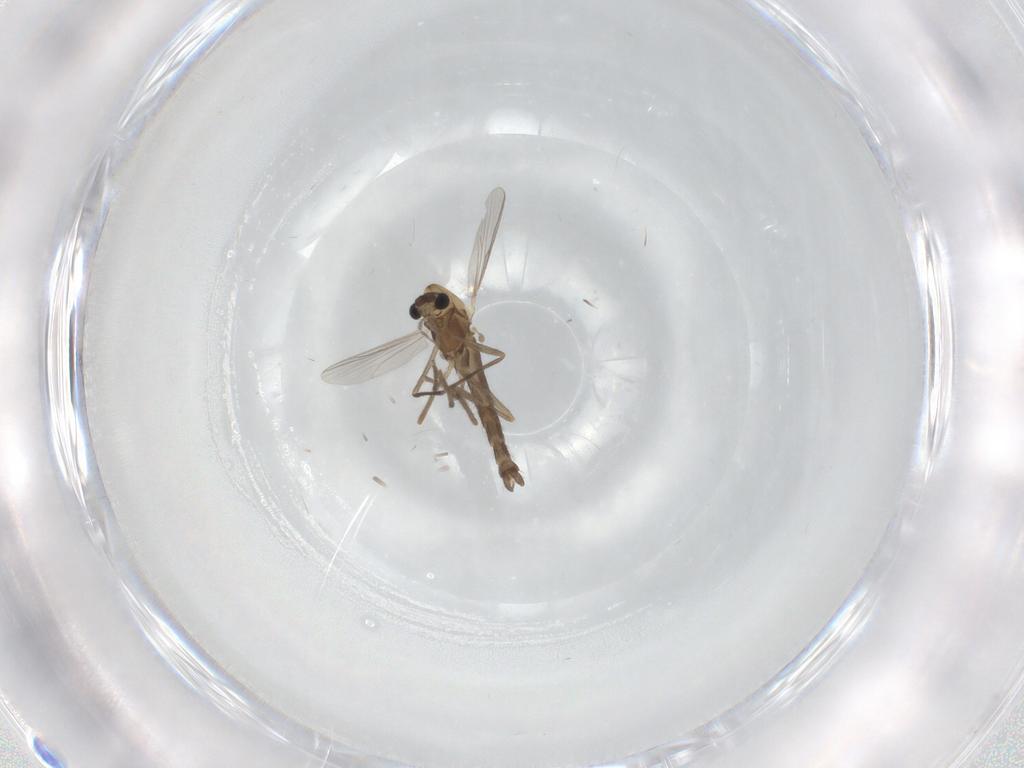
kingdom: Animalia
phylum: Arthropoda
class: Insecta
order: Diptera
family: Chironomidae
